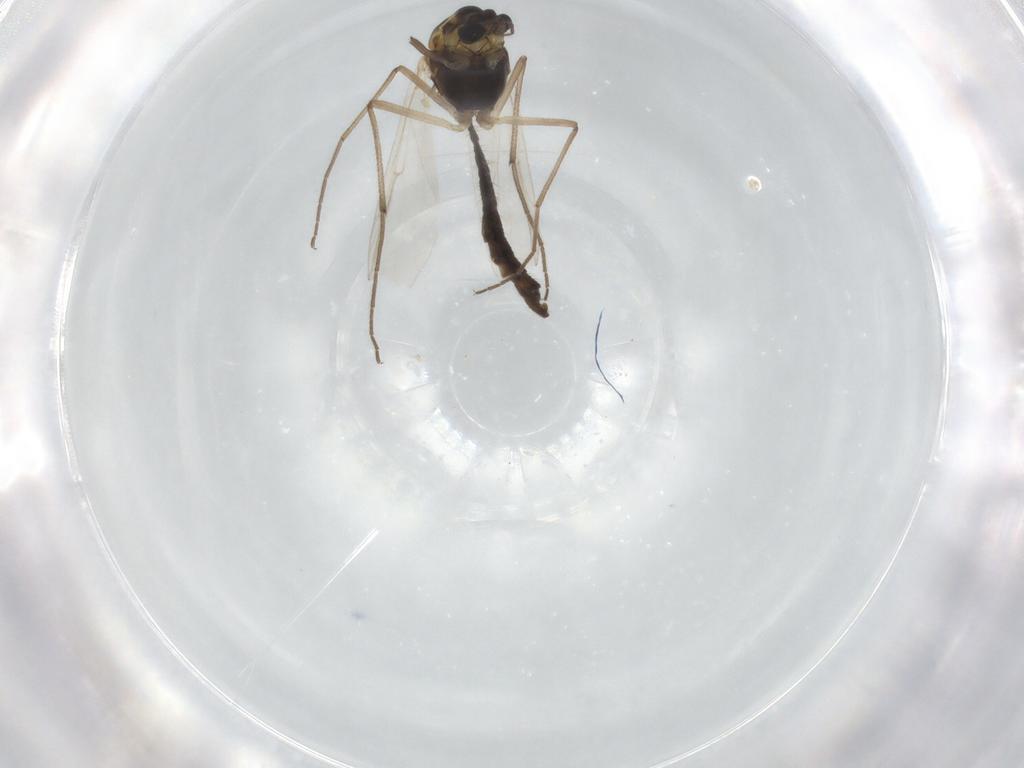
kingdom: Animalia
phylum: Arthropoda
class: Insecta
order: Diptera
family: Chironomidae
